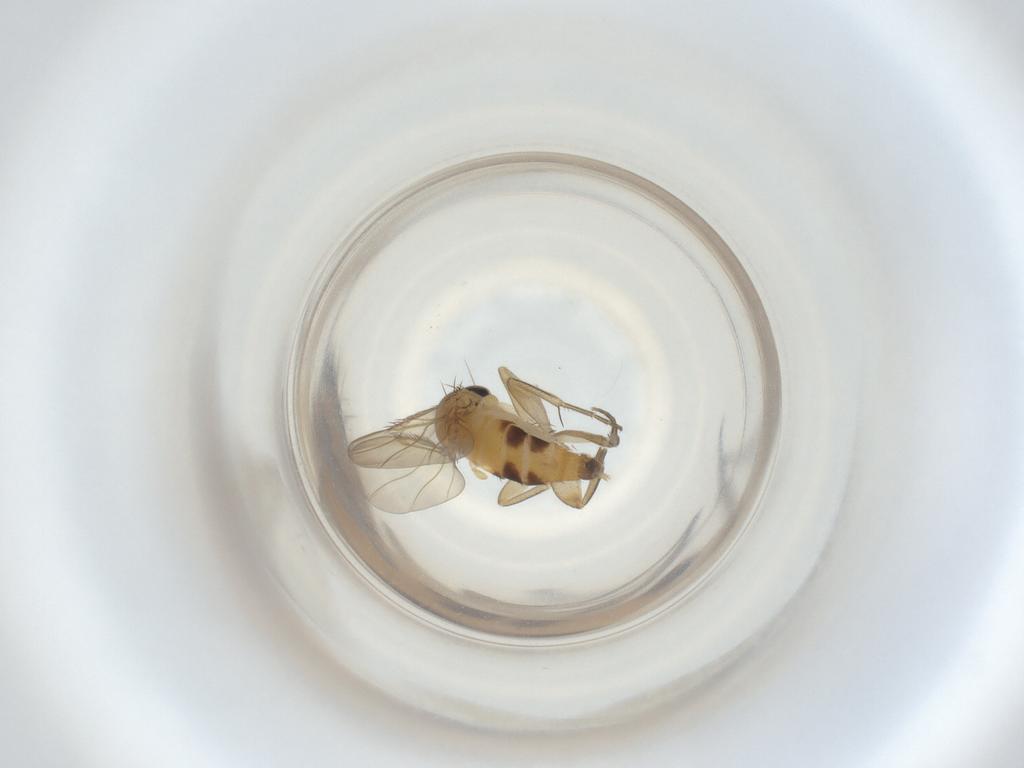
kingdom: Animalia
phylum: Arthropoda
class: Insecta
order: Diptera
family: Phoridae
